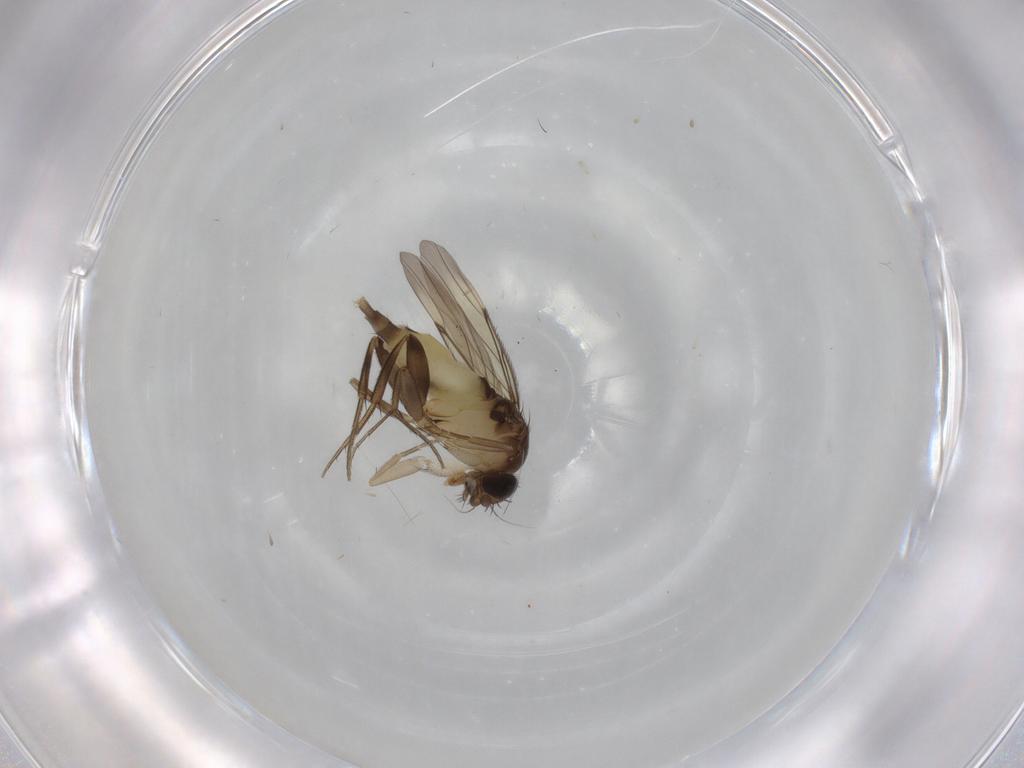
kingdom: Animalia
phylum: Arthropoda
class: Insecta
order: Diptera
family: Phoridae
